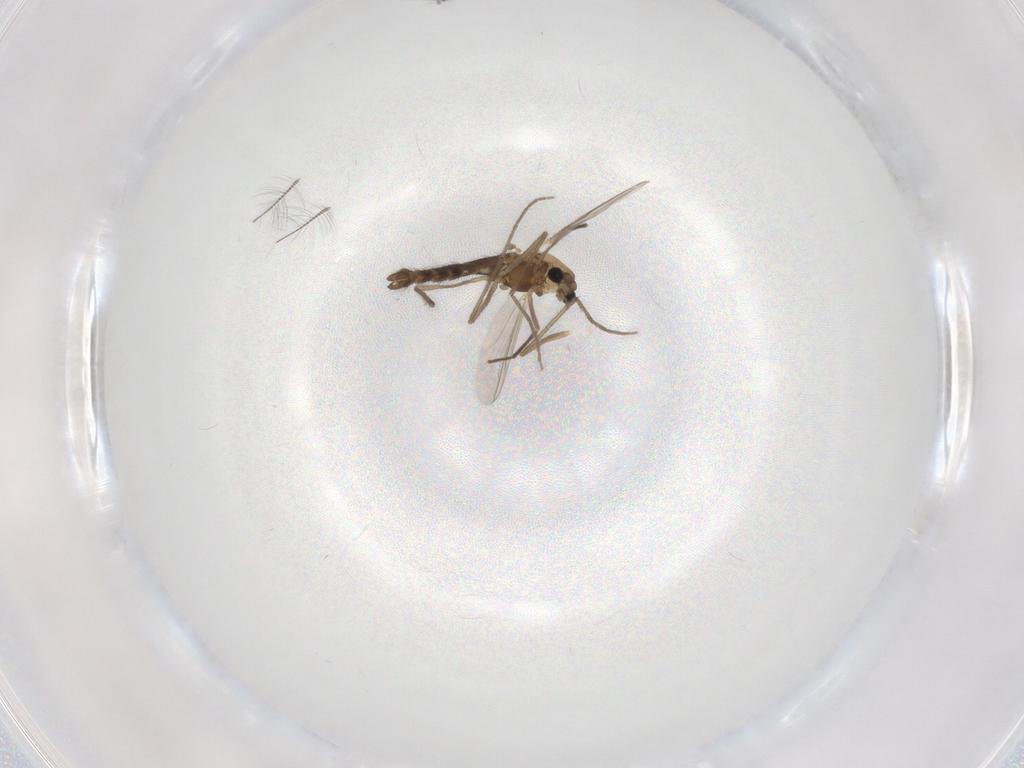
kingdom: Animalia
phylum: Arthropoda
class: Insecta
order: Diptera
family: Chironomidae
